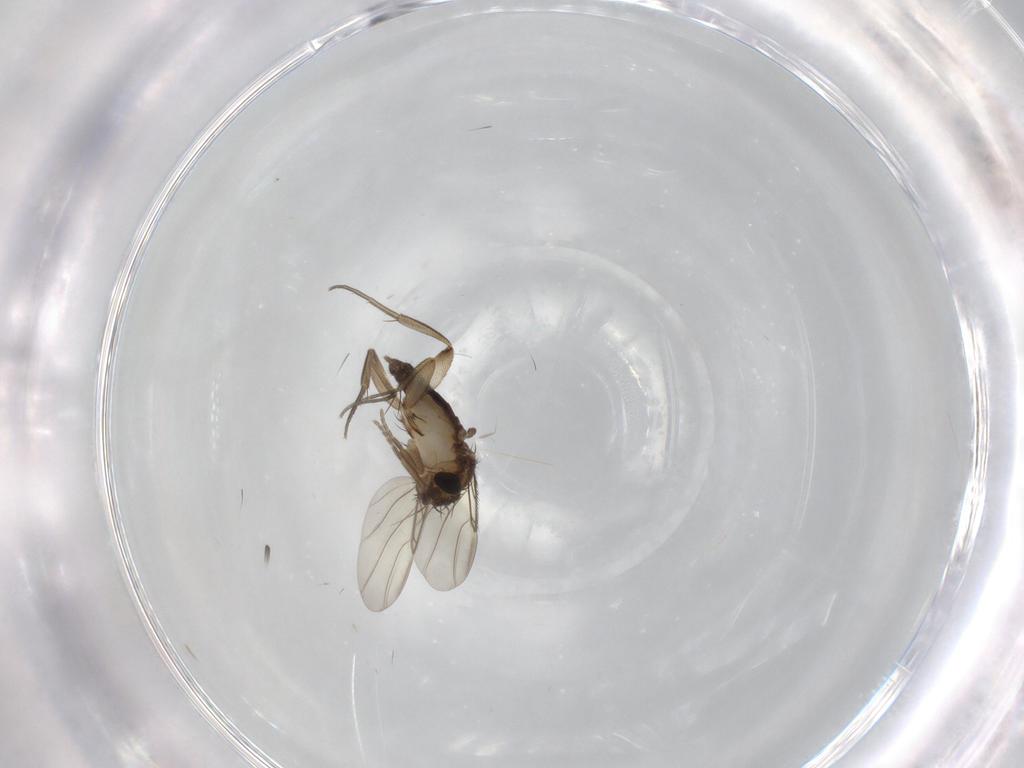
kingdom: Animalia
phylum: Arthropoda
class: Insecta
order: Diptera
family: Phoridae
